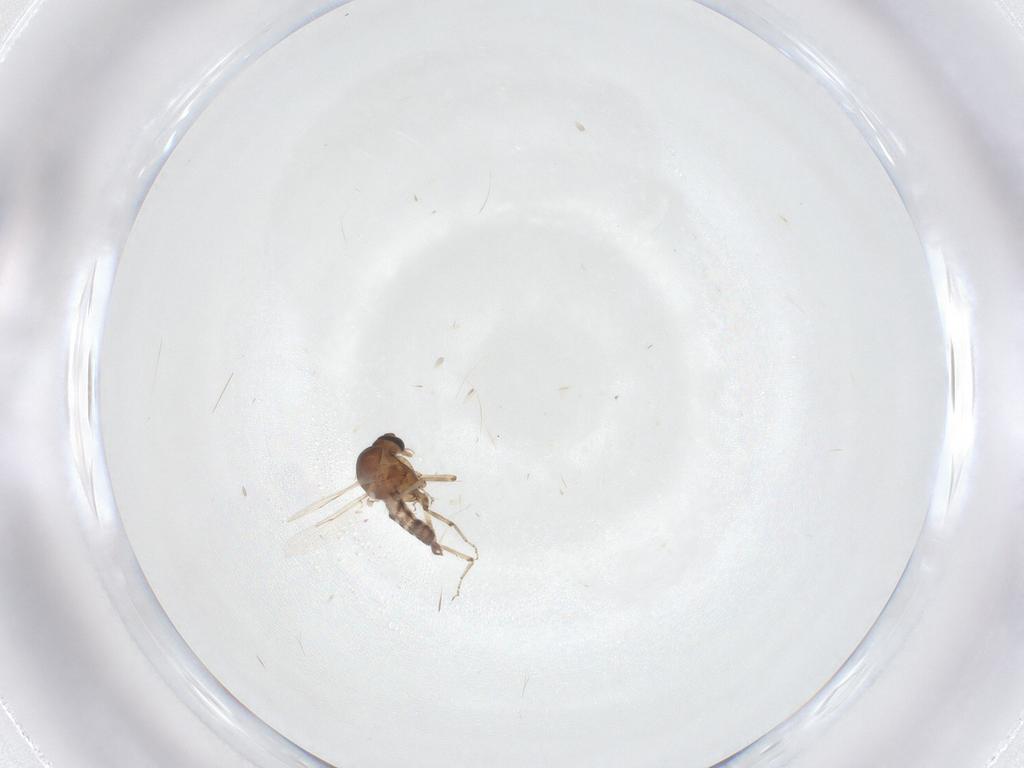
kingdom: Animalia
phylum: Arthropoda
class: Insecta
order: Diptera
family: Ceratopogonidae
